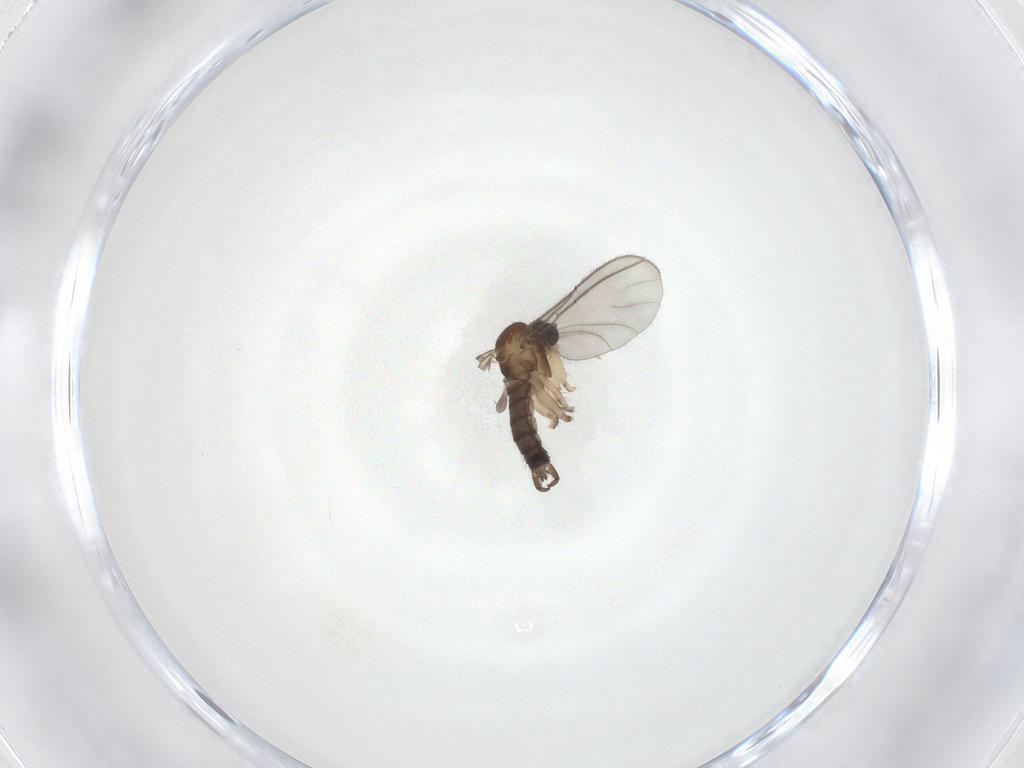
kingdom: Animalia
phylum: Arthropoda
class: Insecta
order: Diptera
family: Sciaridae
